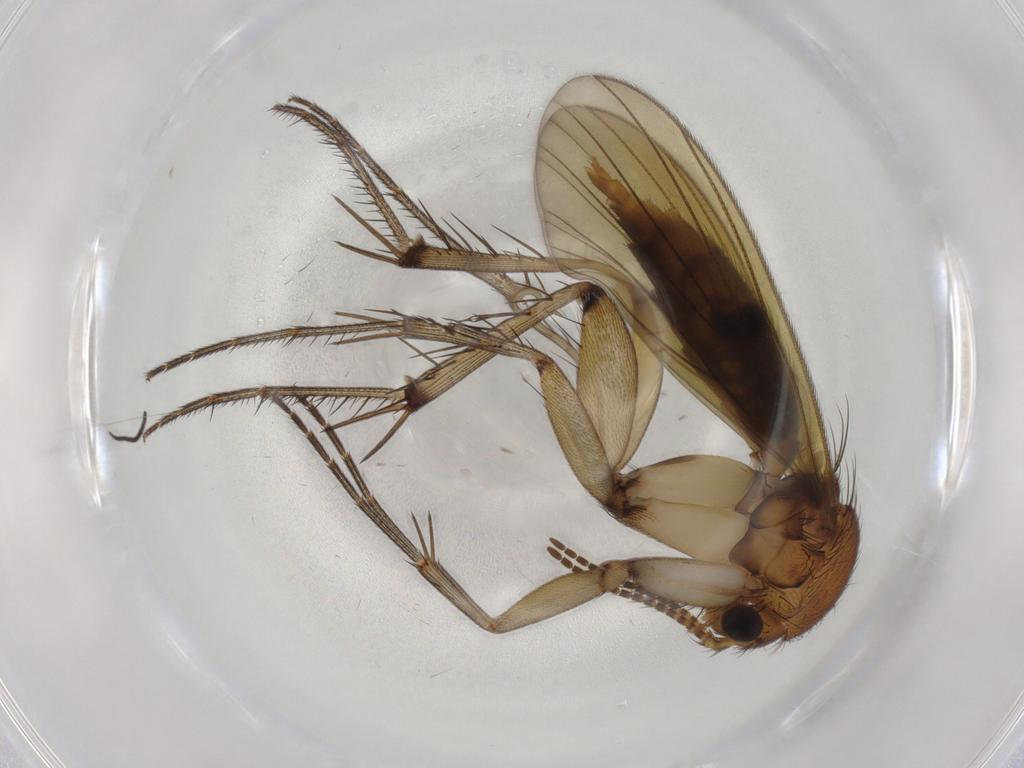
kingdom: Animalia
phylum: Arthropoda
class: Insecta
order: Diptera
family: Mycetophilidae
